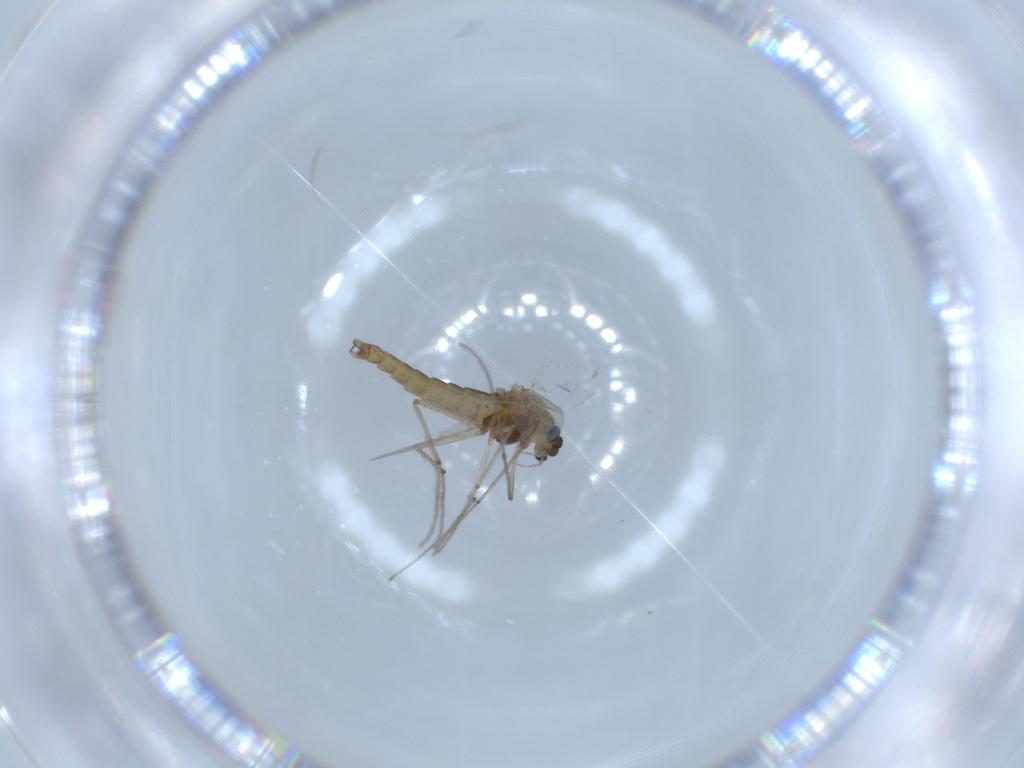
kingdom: Animalia
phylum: Arthropoda
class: Insecta
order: Diptera
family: Chironomidae
